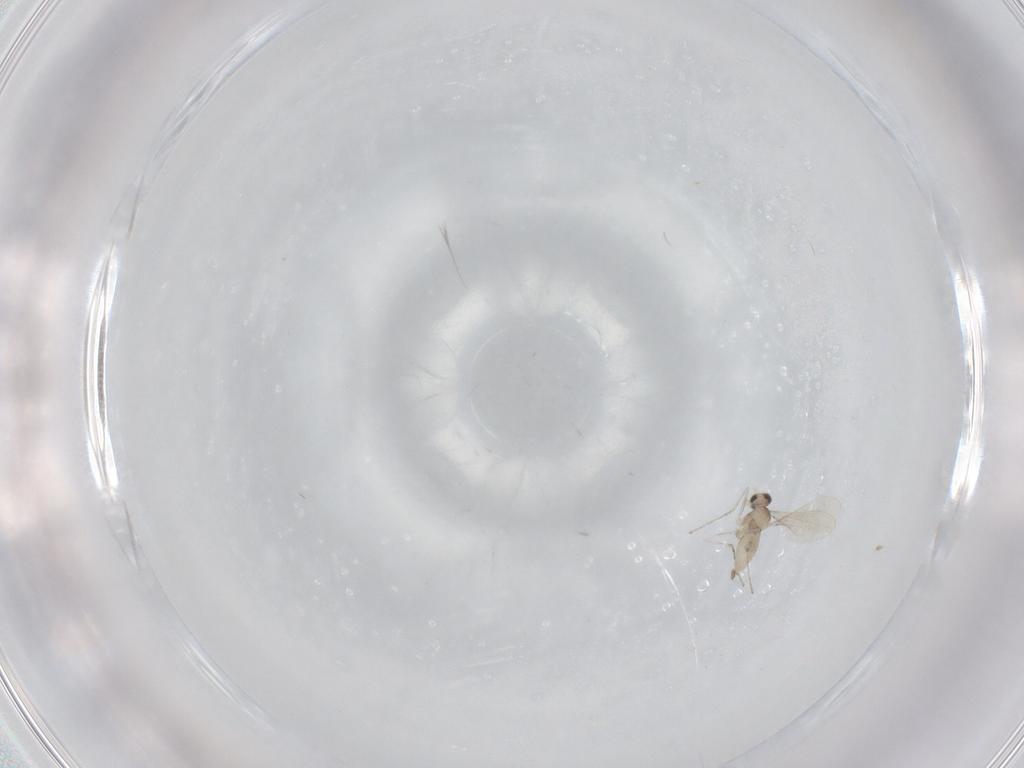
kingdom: Animalia
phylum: Arthropoda
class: Insecta
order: Diptera
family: Cecidomyiidae
